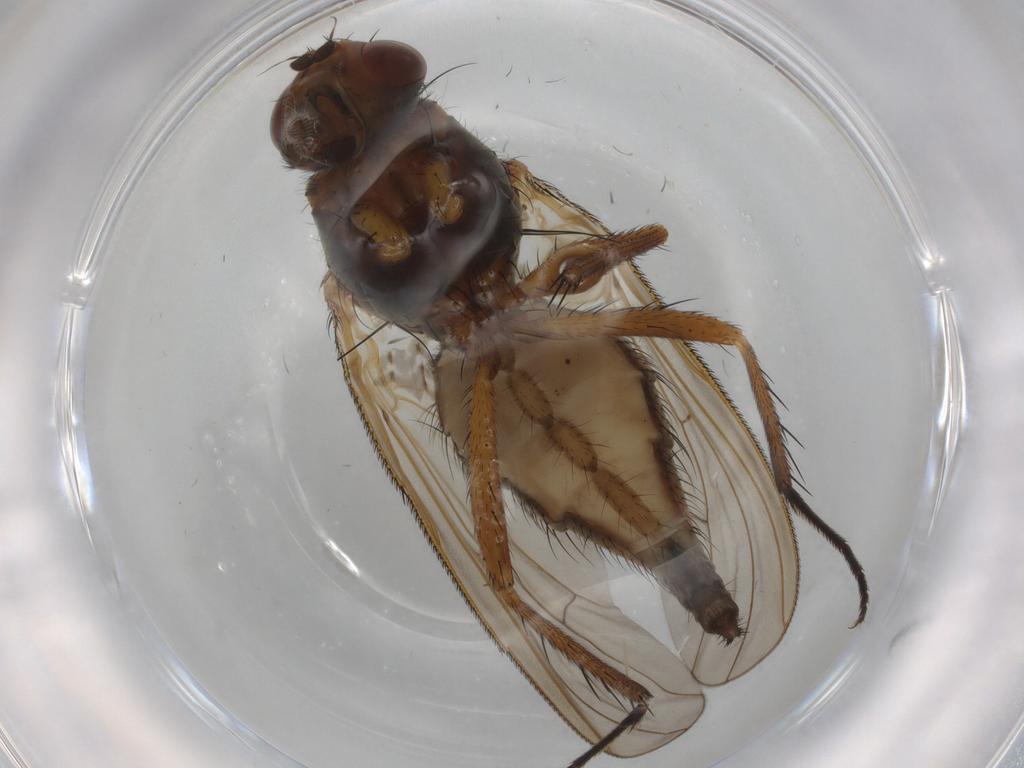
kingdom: Animalia
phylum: Arthropoda
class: Insecta
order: Diptera
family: Anthomyiidae
